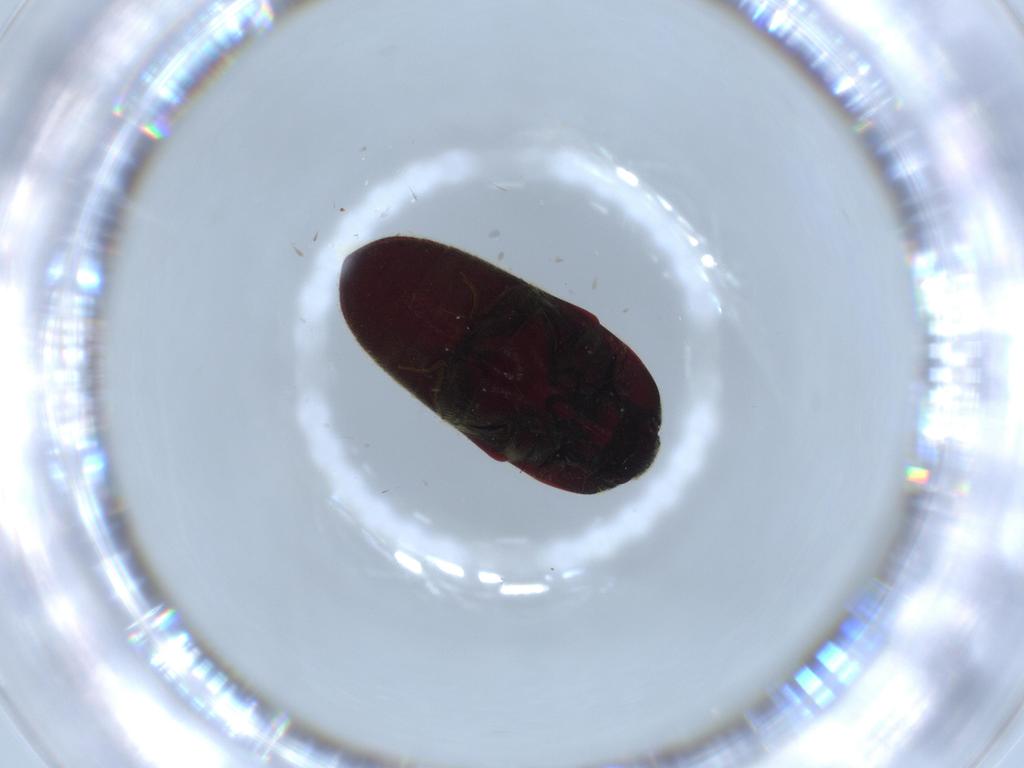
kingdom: Animalia
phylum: Arthropoda
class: Insecta
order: Coleoptera
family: Throscidae
